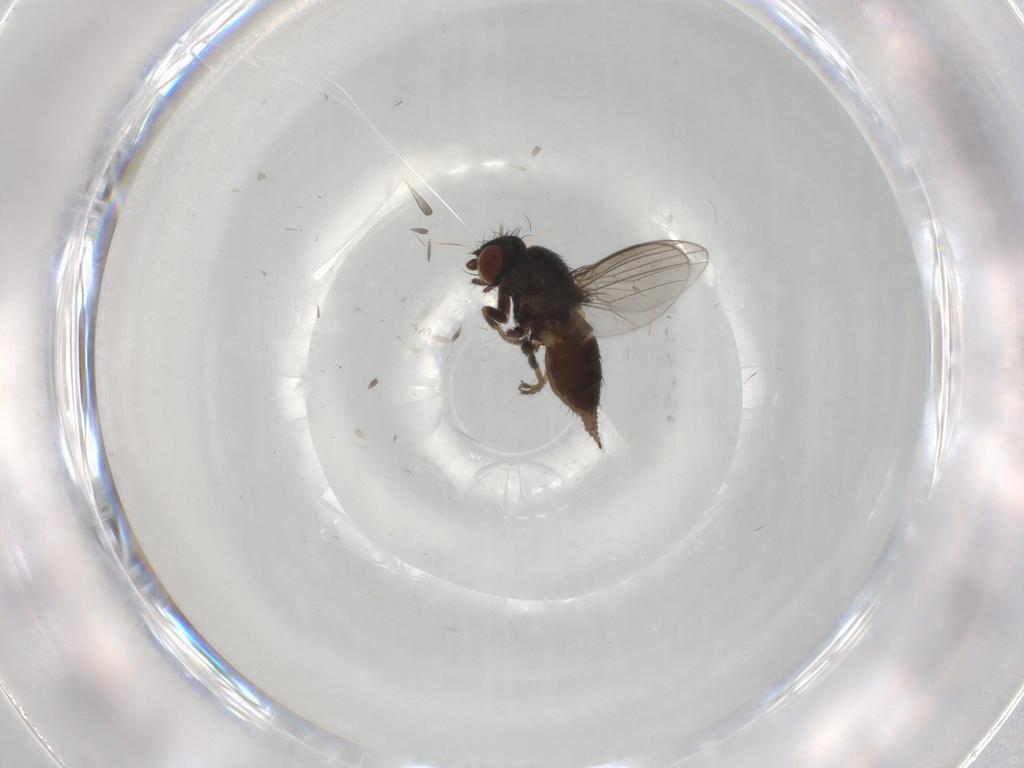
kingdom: Animalia
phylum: Arthropoda
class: Insecta
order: Diptera
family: Milichiidae
